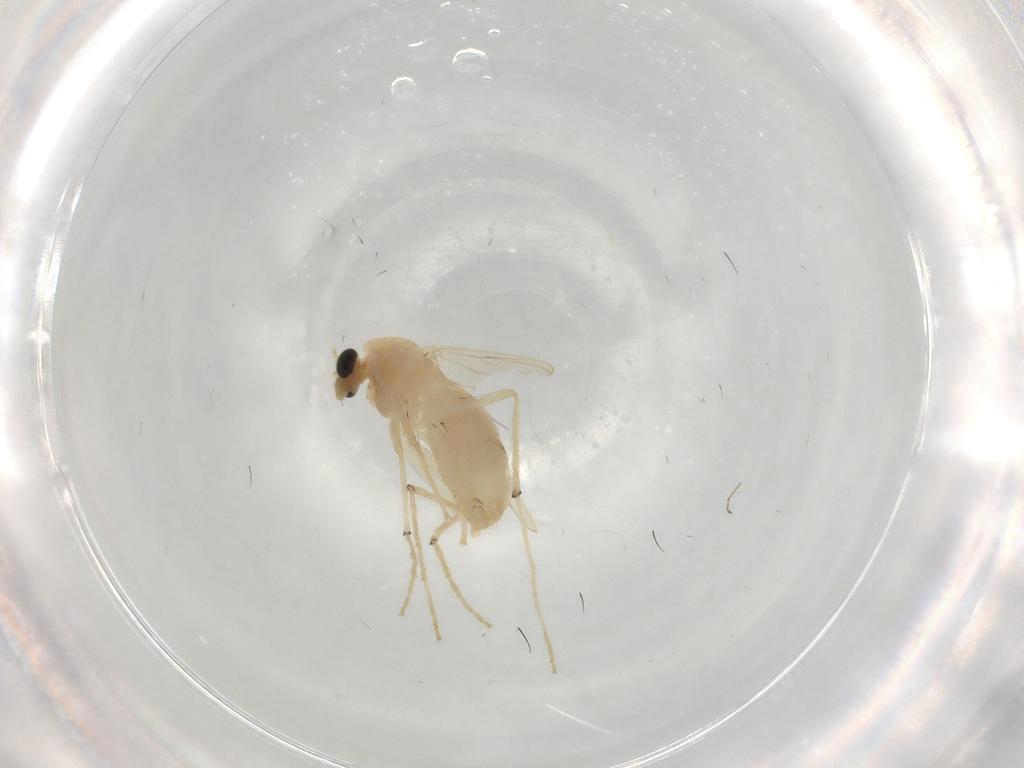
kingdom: Animalia
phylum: Arthropoda
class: Insecta
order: Diptera
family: Chironomidae
